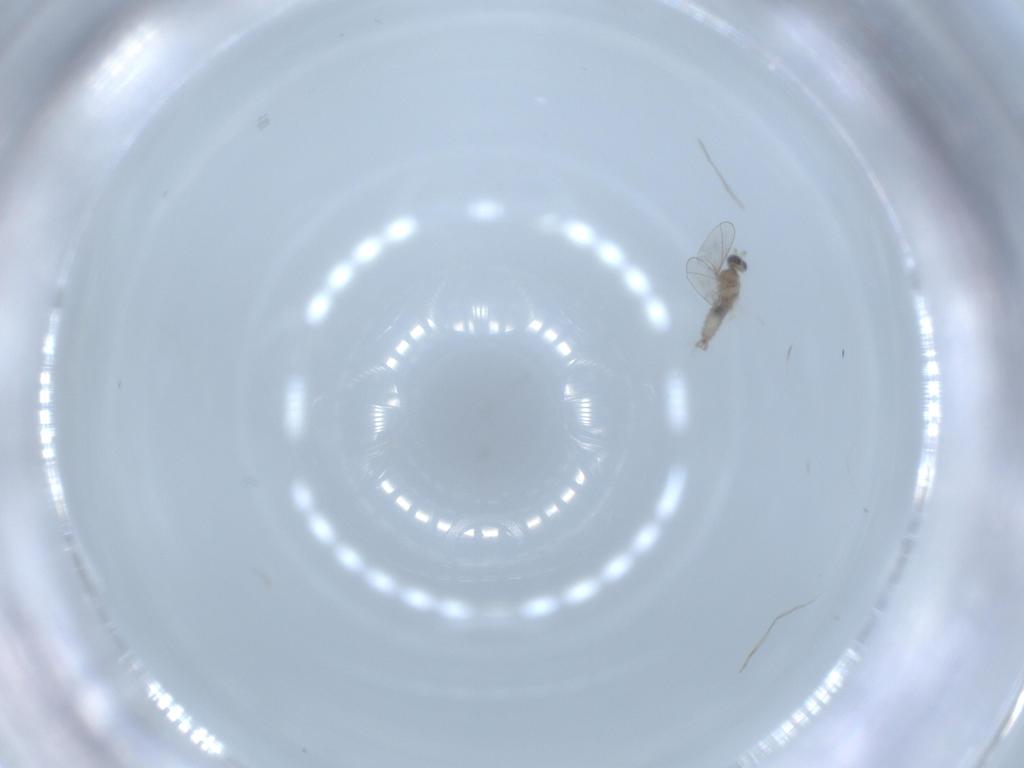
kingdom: Animalia
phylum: Arthropoda
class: Insecta
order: Diptera
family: Cecidomyiidae
